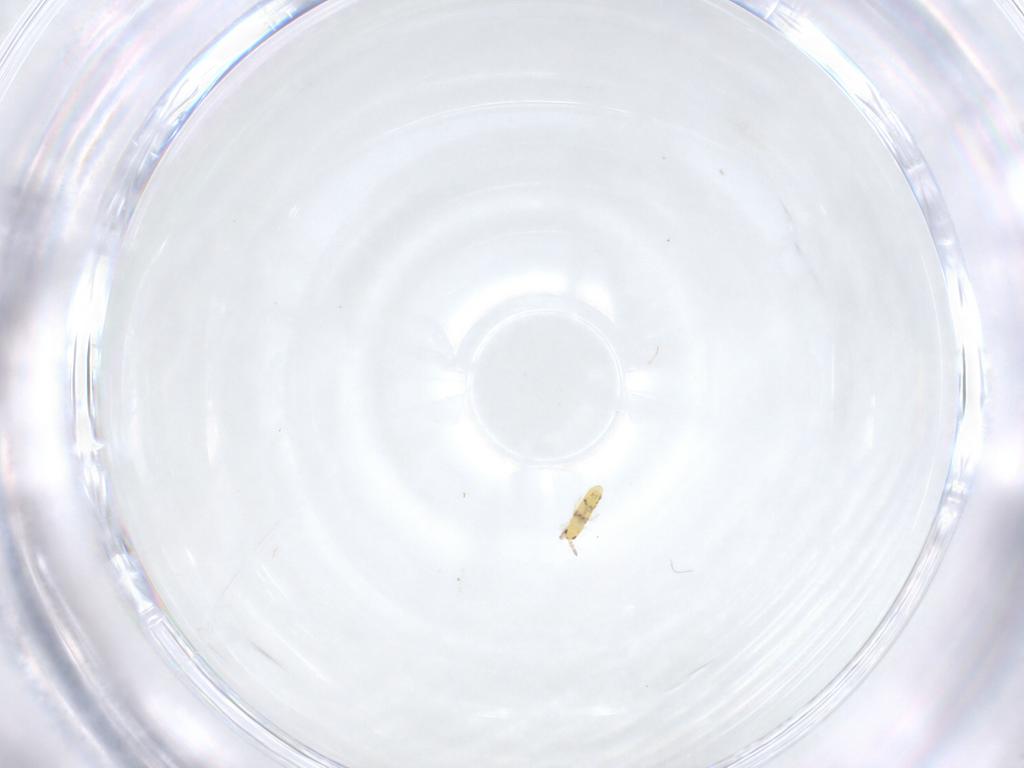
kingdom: Animalia
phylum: Arthropoda
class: Collembola
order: Entomobryomorpha
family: Entomobryidae
